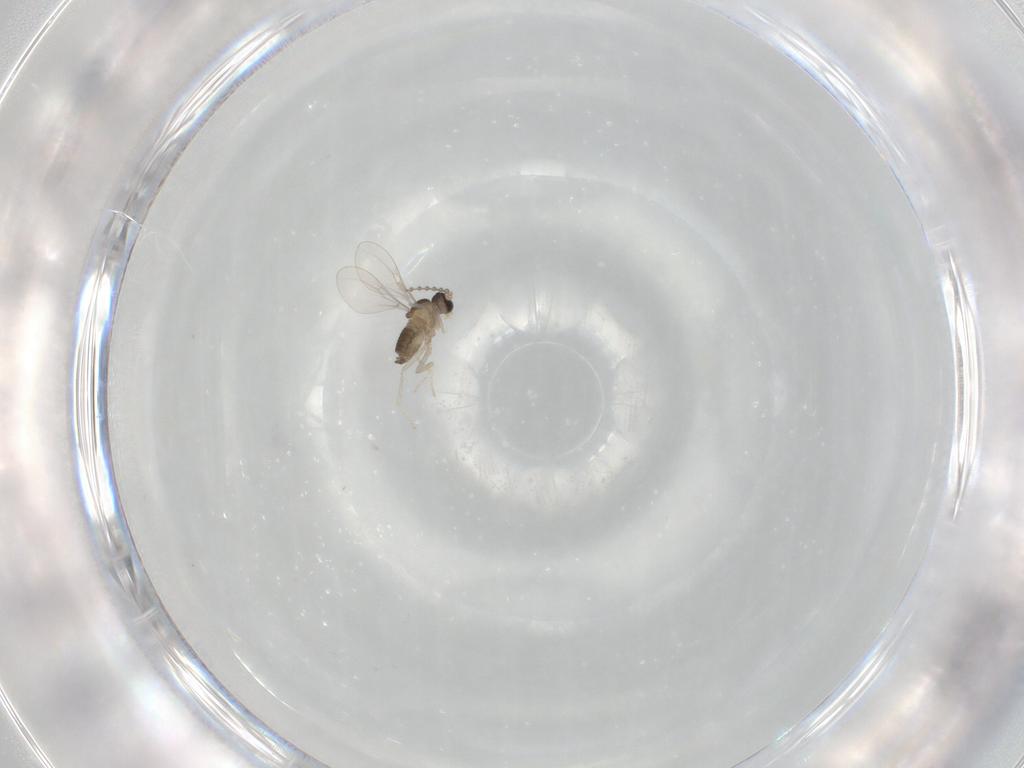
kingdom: Animalia
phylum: Arthropoda
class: Insecta
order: Diptera
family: Cecidomyiidae
